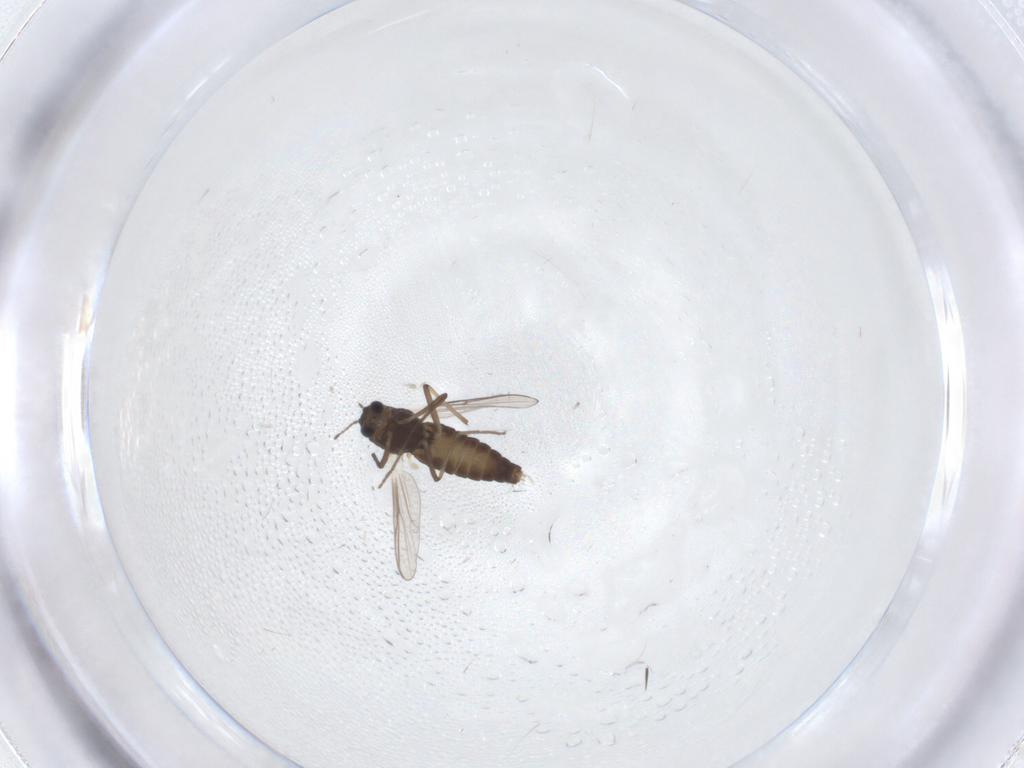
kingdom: Animalia
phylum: Arthropoda
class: Insecta
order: Diptera
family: Chironomidae
